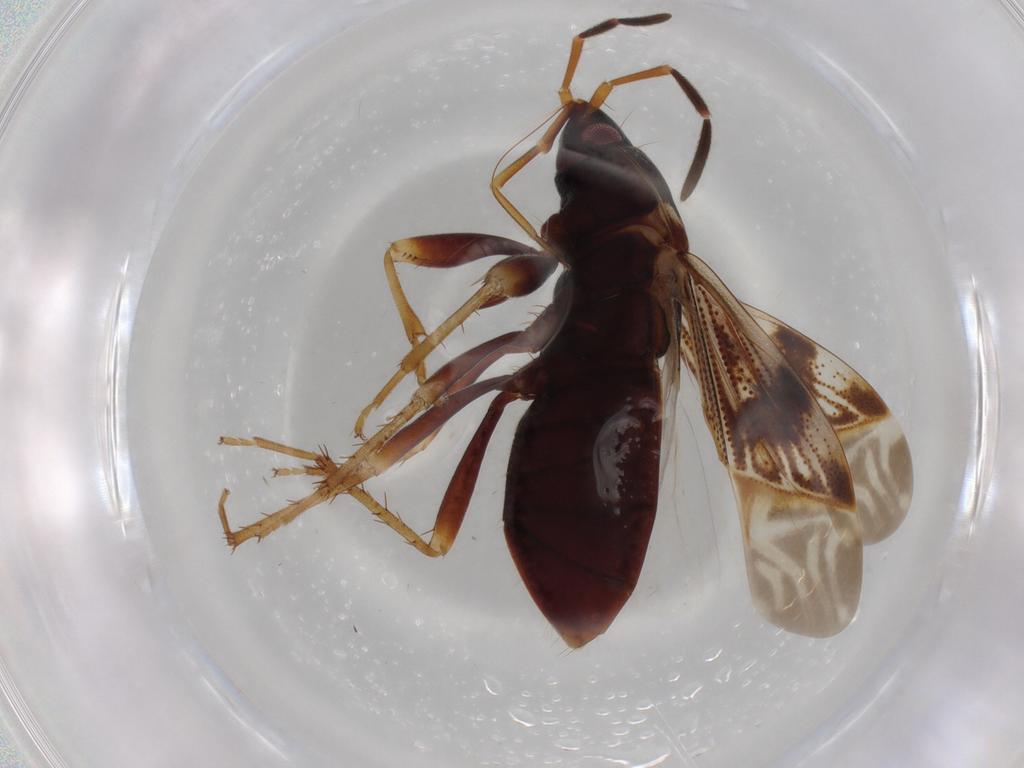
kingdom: Animalia
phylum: Arthropoda
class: Insecta
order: Hemiptera
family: Rhyparochromidae
